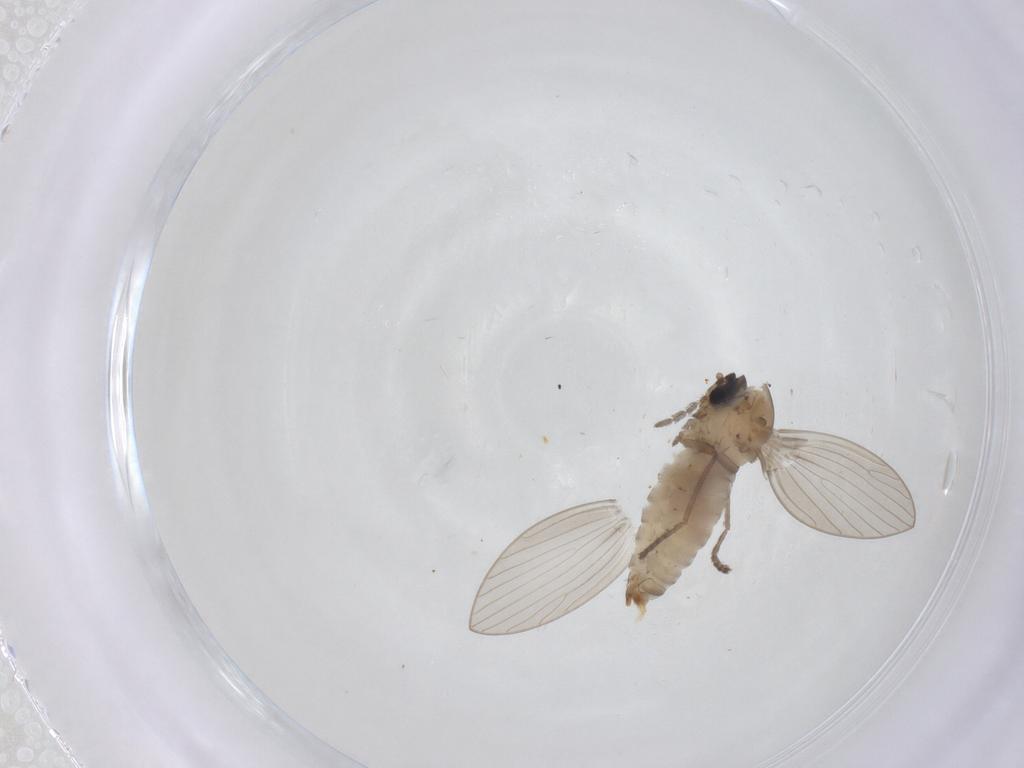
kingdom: Animalia
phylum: Arthropoda
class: Insecta
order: Diptera
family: Psychodidae
